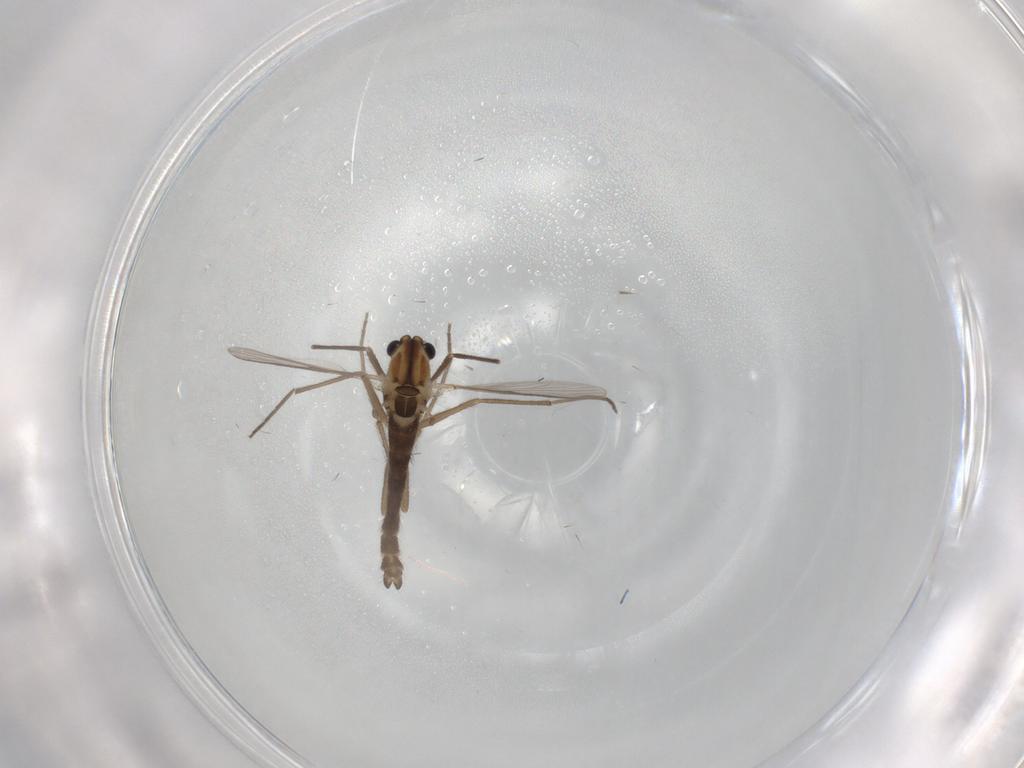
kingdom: Animalia
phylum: Arthropoda
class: Insecta
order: Diptera
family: Chironomidae
